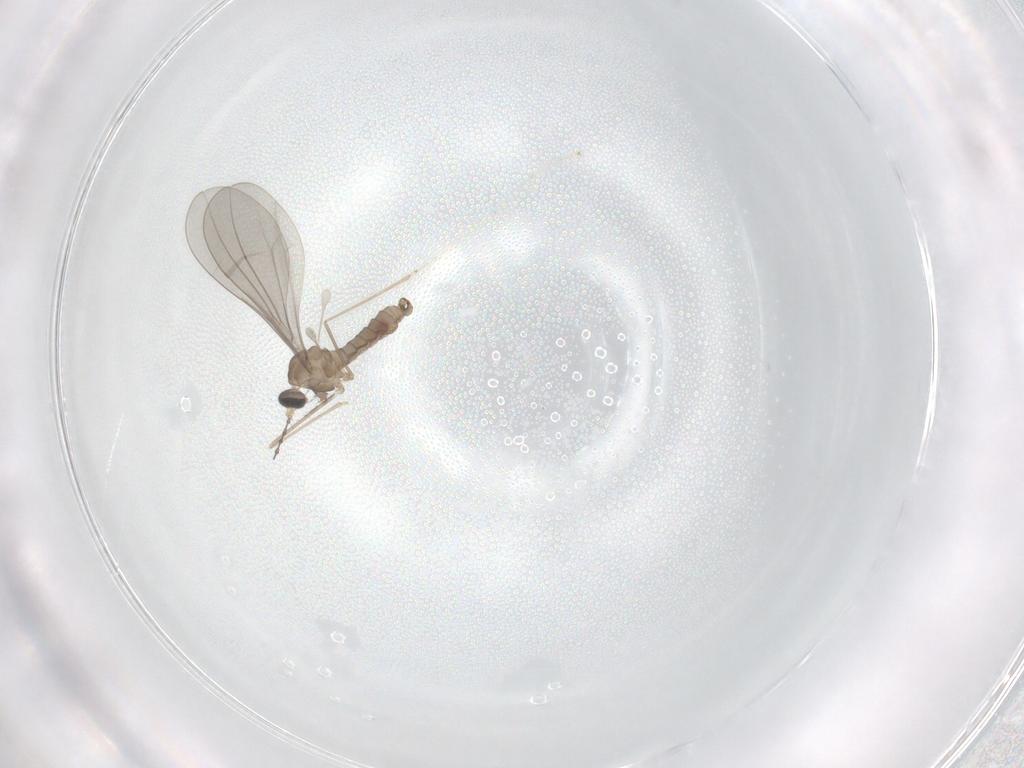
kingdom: Animalia
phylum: Arthropoda
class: Insecta
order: Diptera
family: Cecidomyiidae
